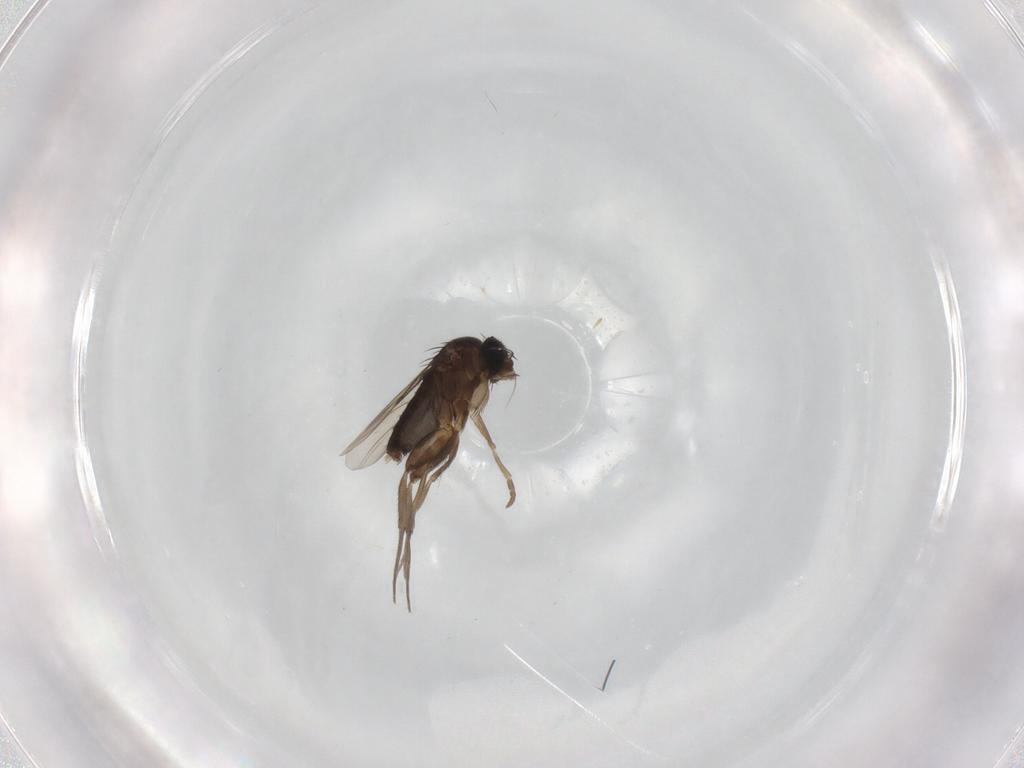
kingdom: Animalia
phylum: Arthropoda
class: Insecta
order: Diptera
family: Phoridae
